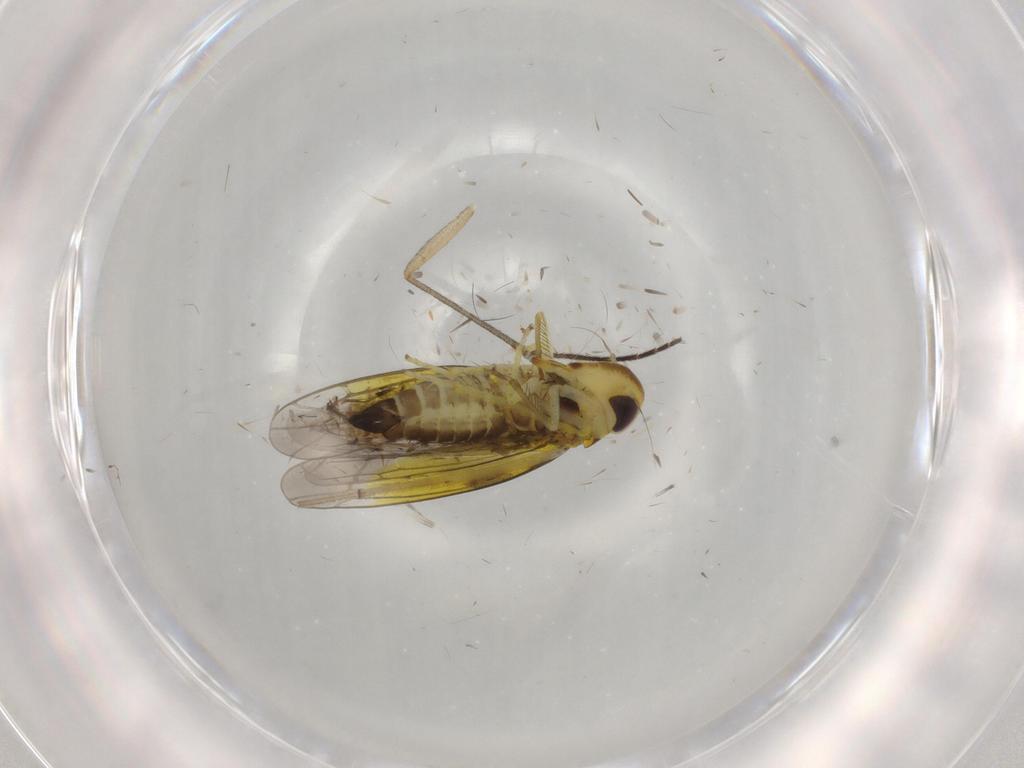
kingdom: Animalia
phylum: Arthropoda
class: Insecta
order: Hemiptera
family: Cicadellidae
